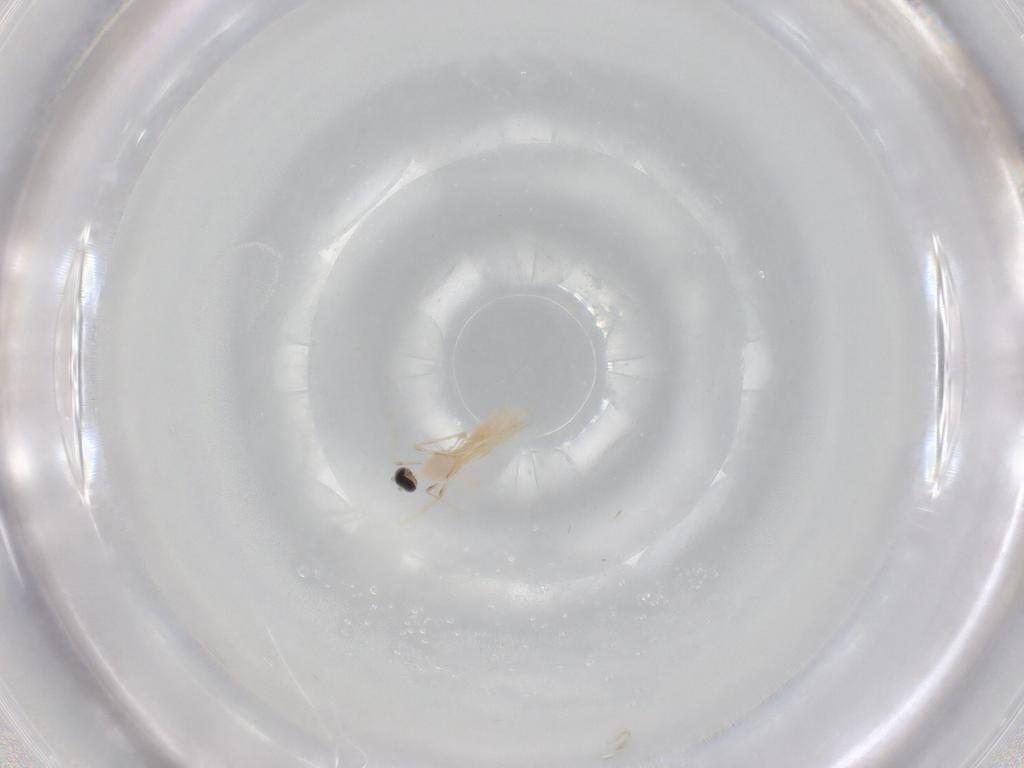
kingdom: Animalia
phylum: Arthropoda
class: Insecta
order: Diptera
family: Cecidomyiidae
